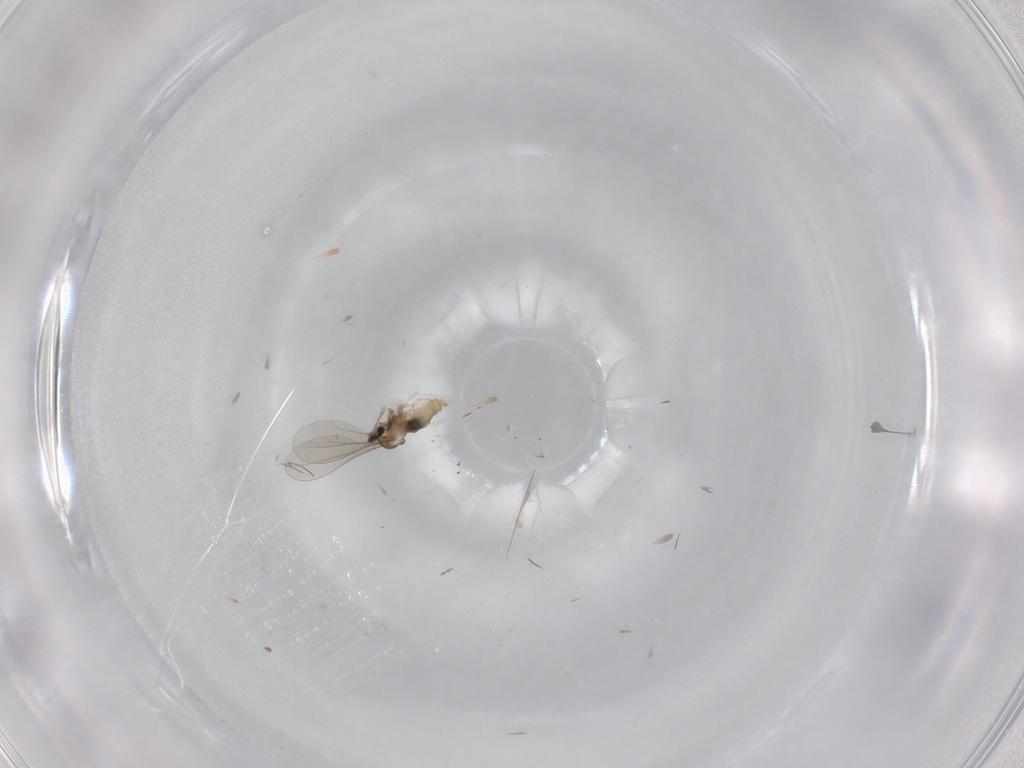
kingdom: Animalia
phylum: Arthropoda
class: Insecta
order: Diptera
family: Cecidomyiidae
